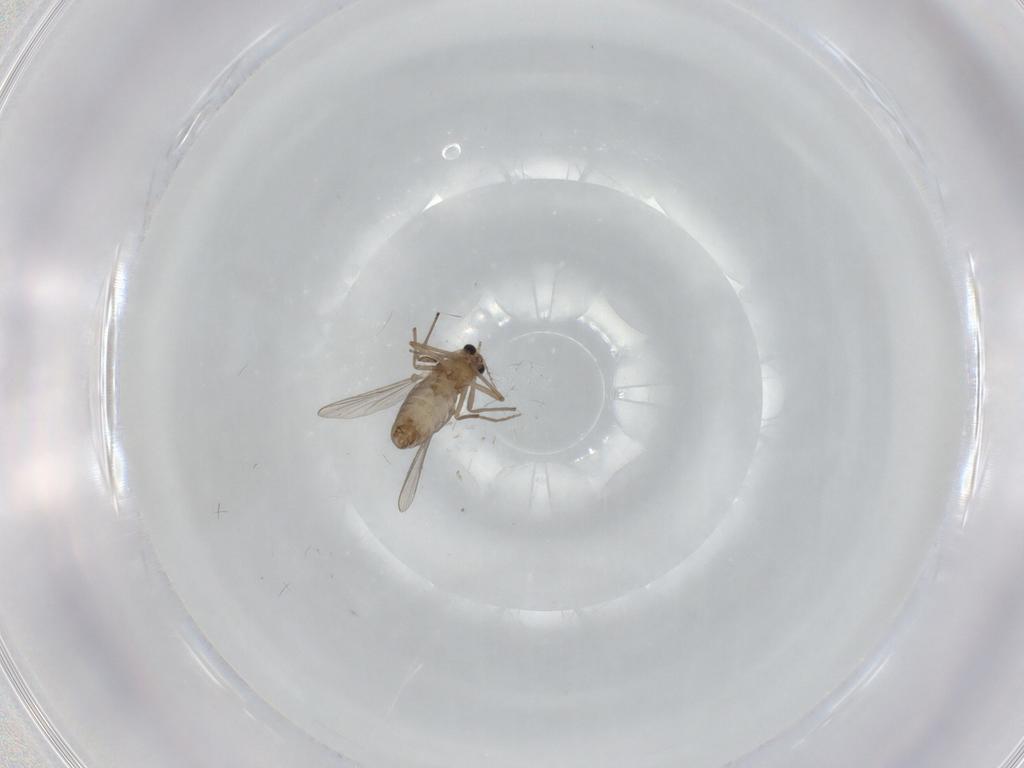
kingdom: Animalia
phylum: Arthropoda
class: Insecta
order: Diptera
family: Chironomidae
